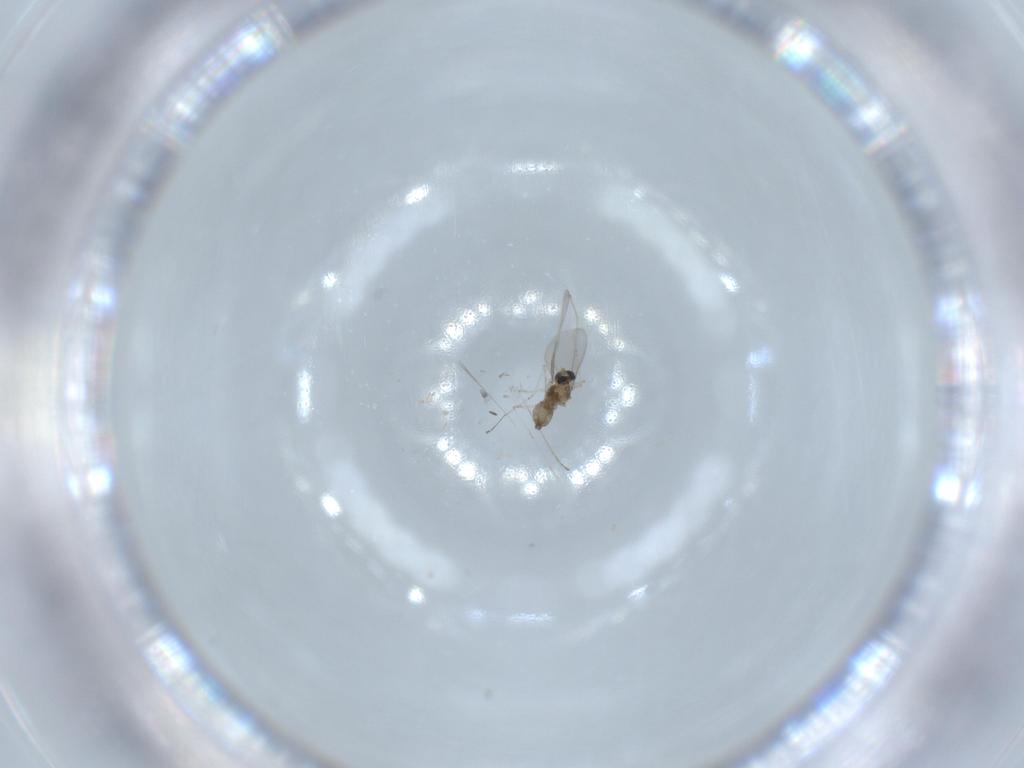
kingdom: Animalia
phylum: Arthropoda
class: Insecta
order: Diptera
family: Cecidomyiidae
